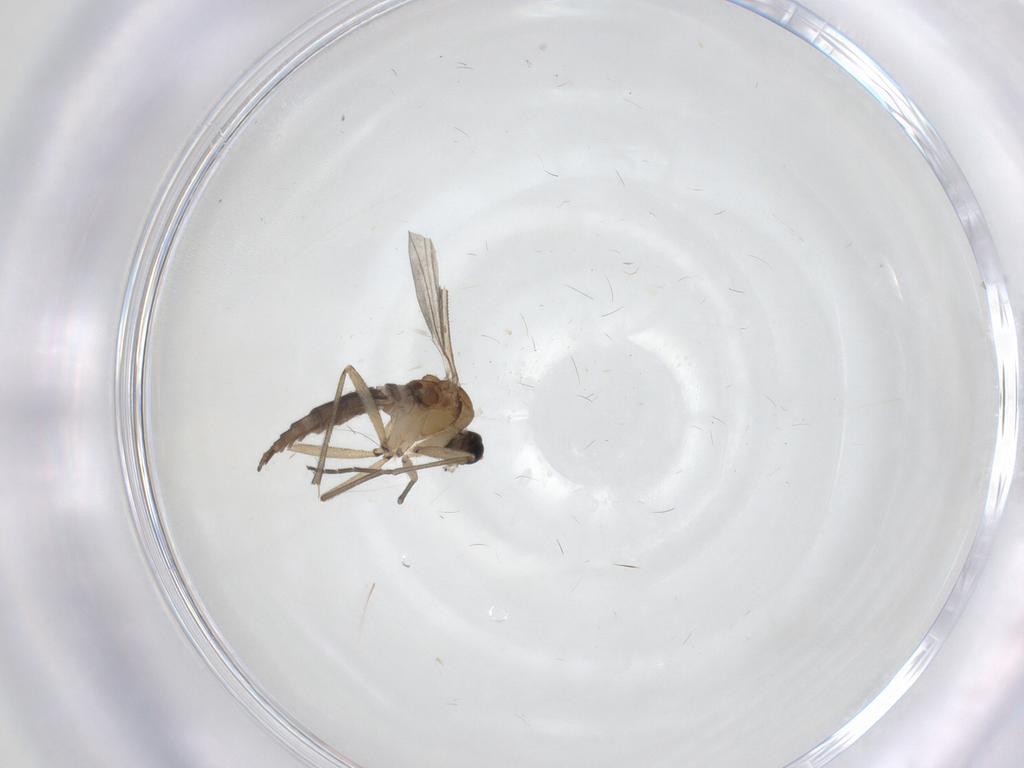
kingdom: Animalia
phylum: Arthropoda
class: Insecta
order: Diptera
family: Sciaridae
